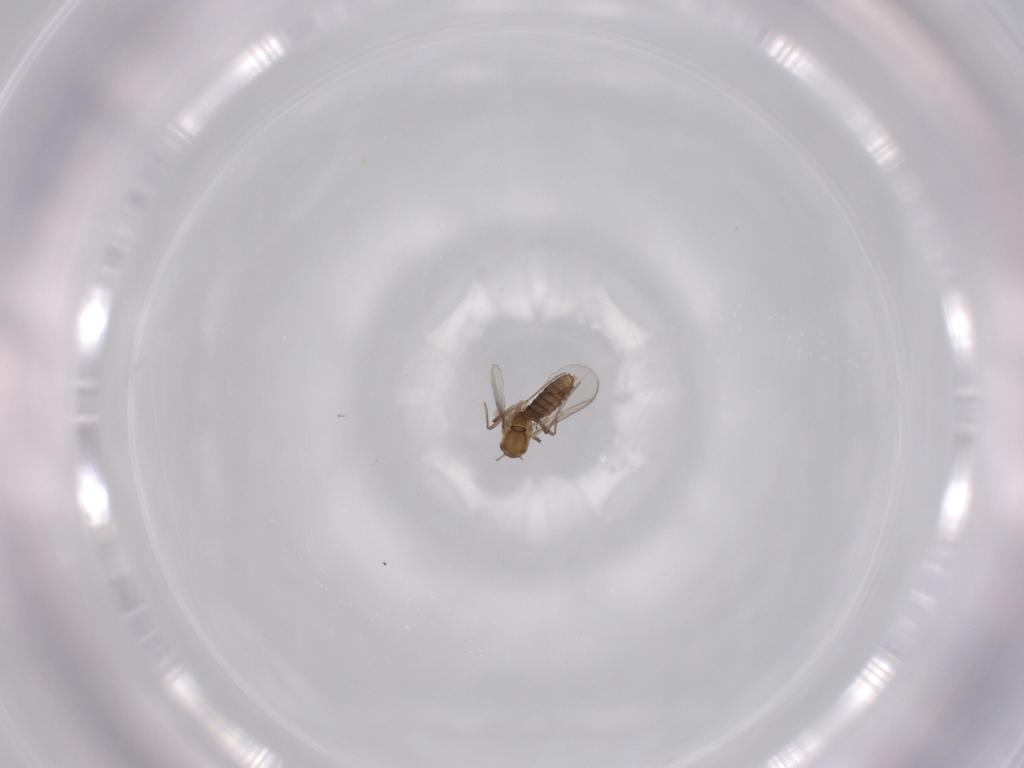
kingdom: Animalia
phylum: Arthropoda
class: Insecta
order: Diptera
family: Agromyzidae
